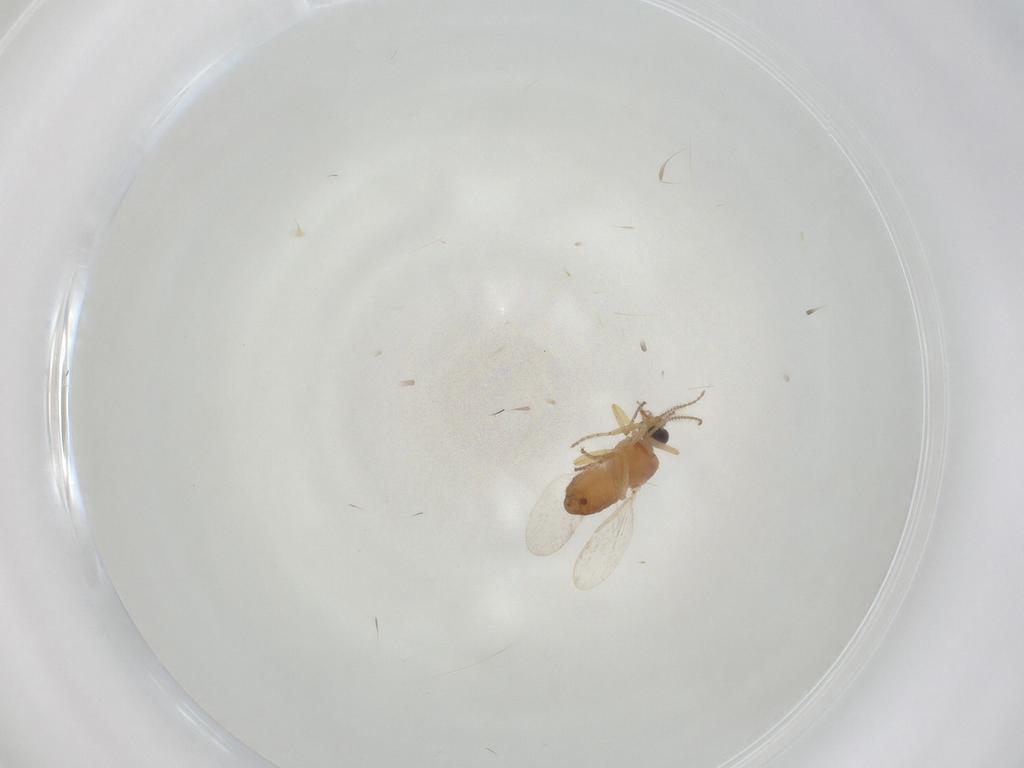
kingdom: Animalia
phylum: Arthropoda
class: Insecta
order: Diptera
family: Ceratopogonidae
